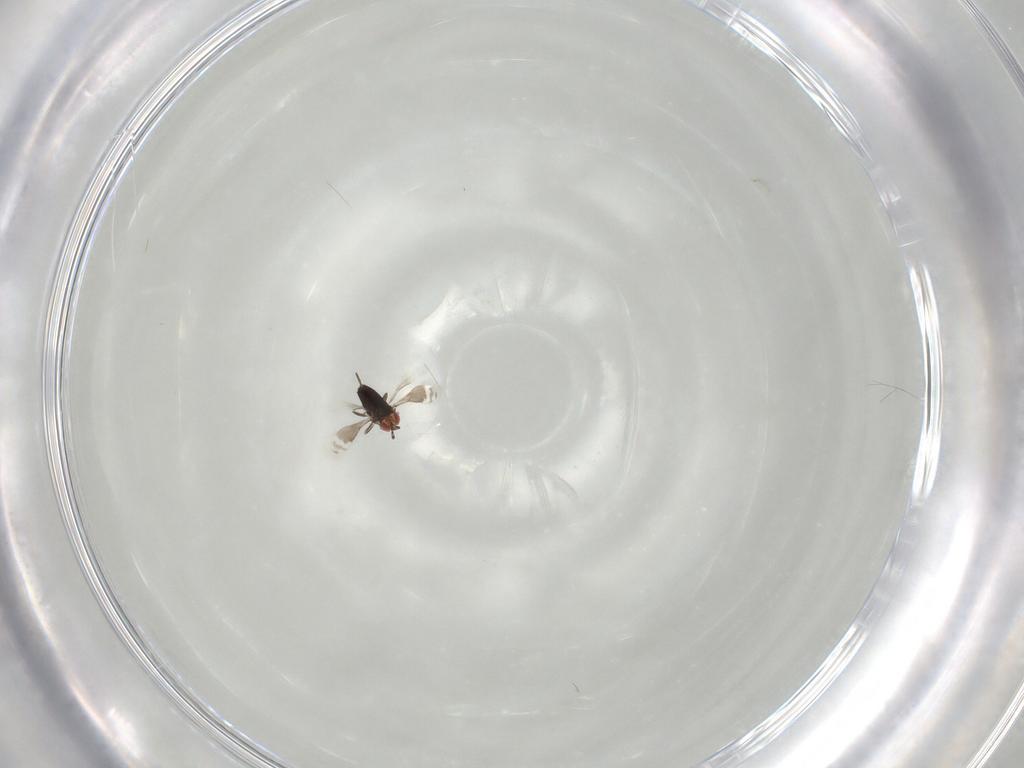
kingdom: Animalia
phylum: Arthropoda
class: Insecta
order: Hymenoptera
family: Azotidae
